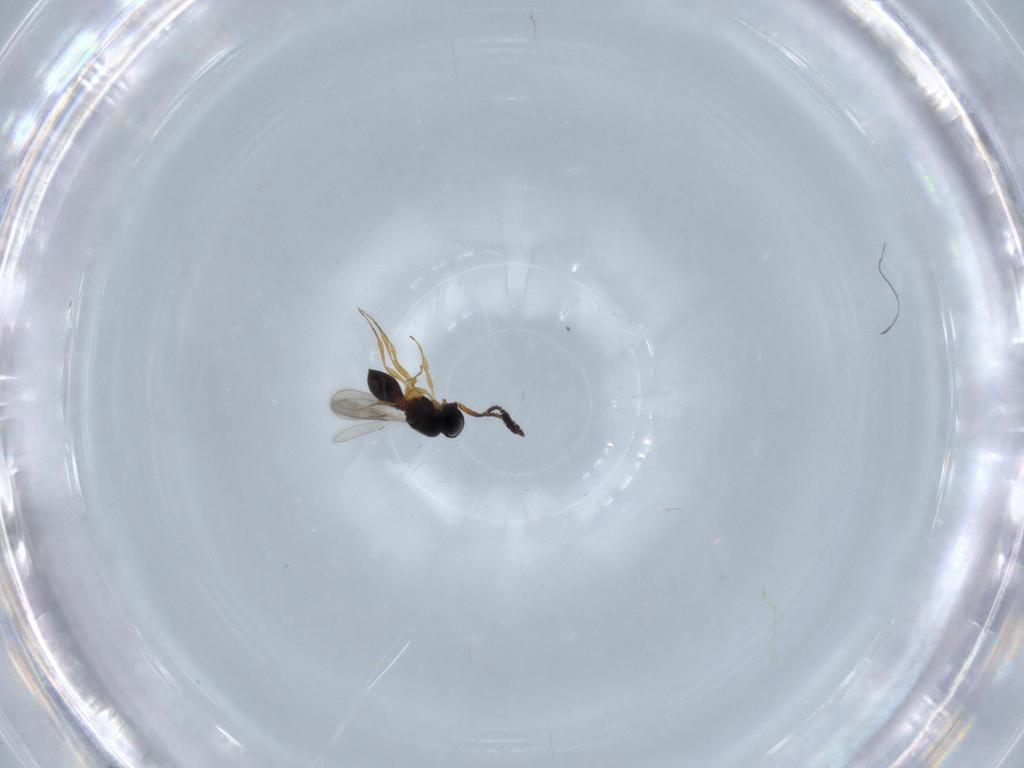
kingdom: Animalia
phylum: Arthropoda
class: Insecta
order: Hymenoptera
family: Scelionidae
